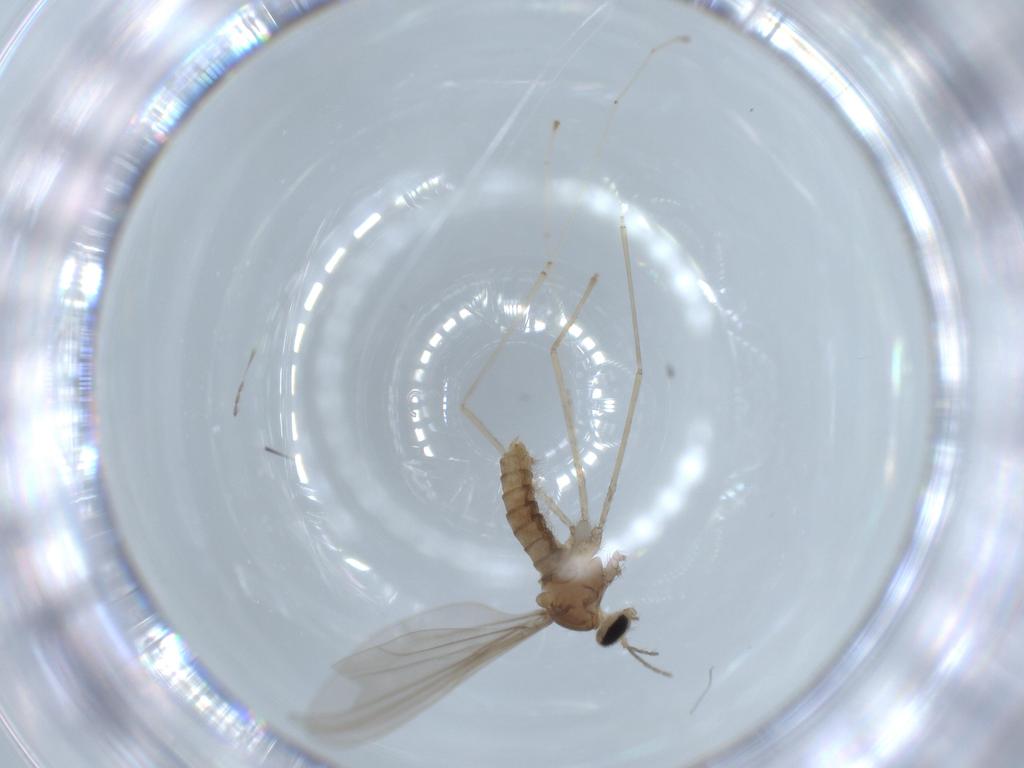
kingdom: Animalia
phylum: Arthropoda
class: Insecta
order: Diptera
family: Cecidomyiidae
